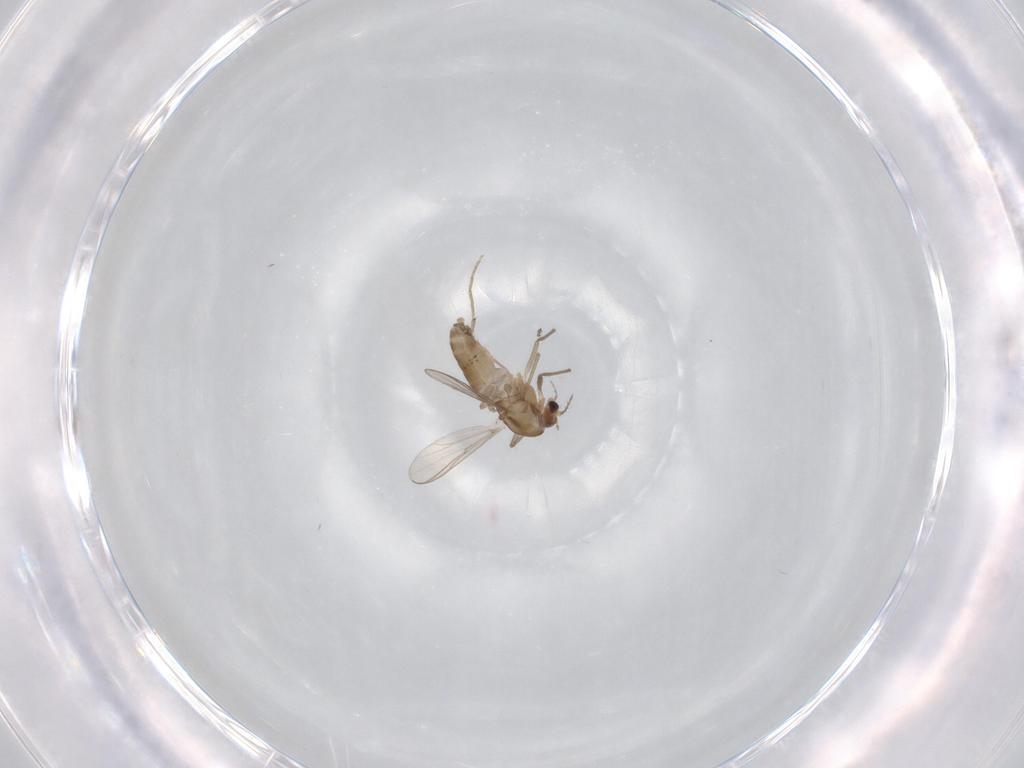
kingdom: Animalia
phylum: Arthropoda
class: Insecta
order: Diptera
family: Chironomidae
